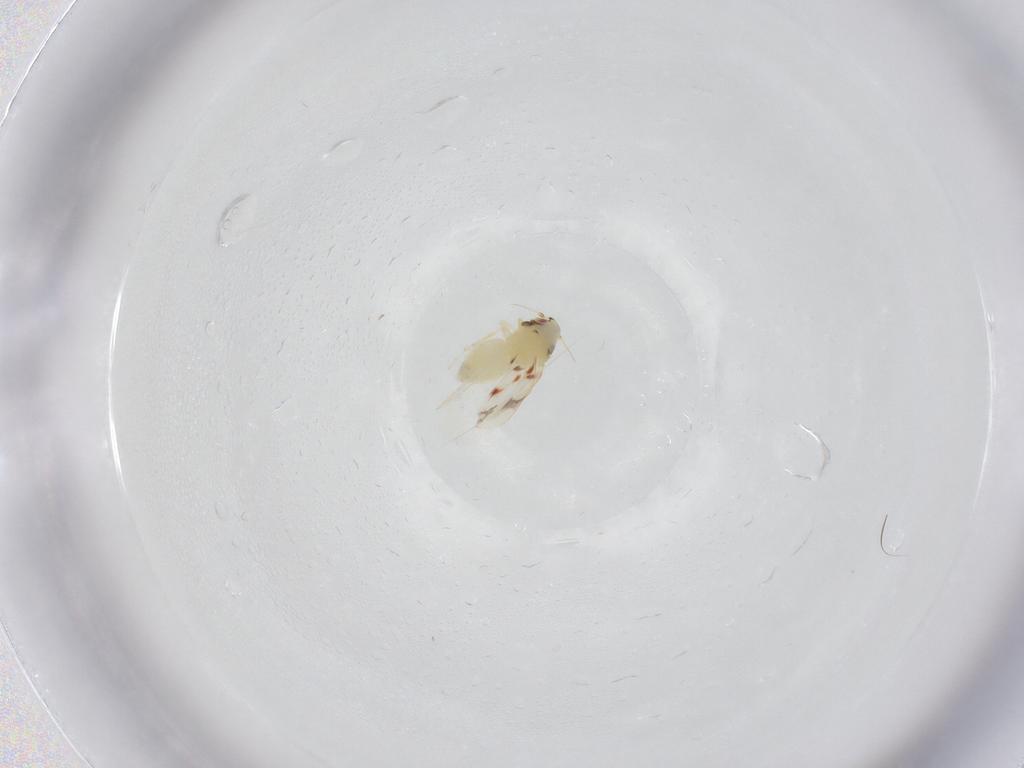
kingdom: Animalia
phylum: Arthropoda
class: Insecta
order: Hemiptera
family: Aleyrodidae
